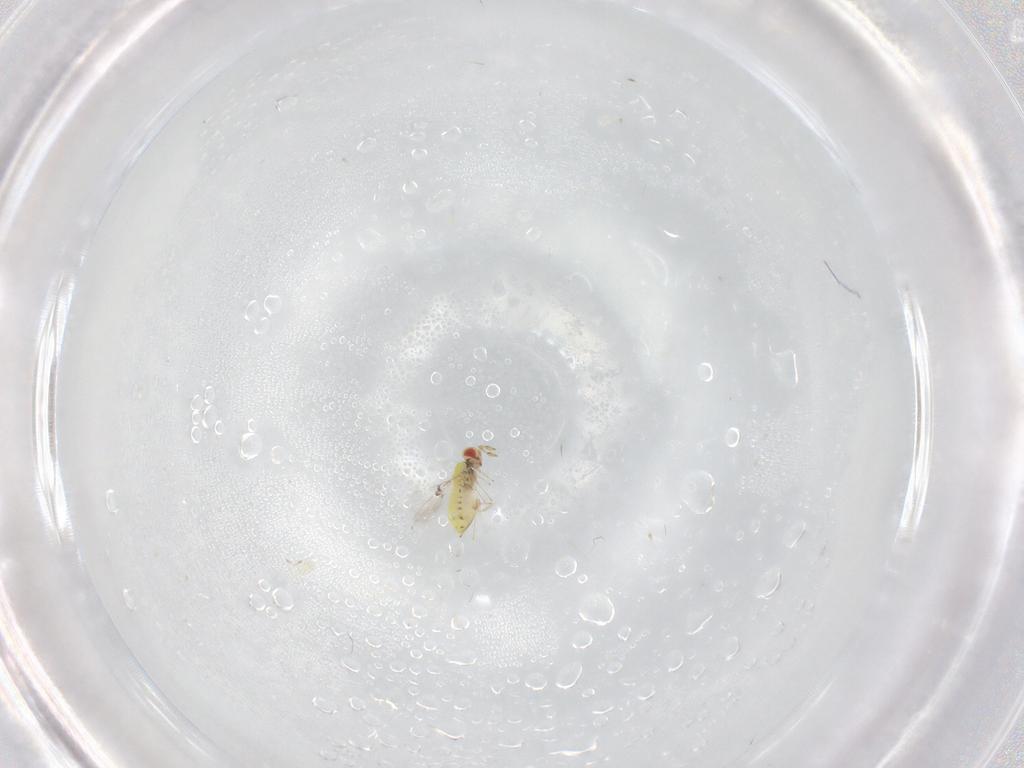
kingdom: Animalia
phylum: Arthropoda
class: Insecta
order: Hymenoptera
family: Trichogrammatidae
